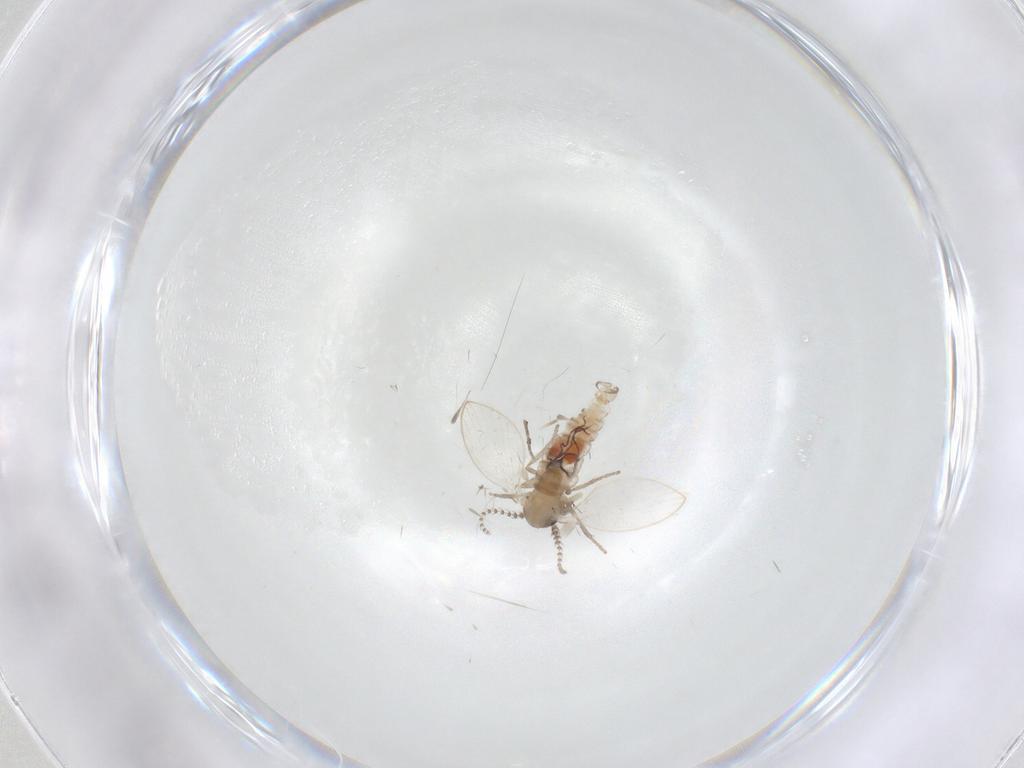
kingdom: Animalia
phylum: Arthropoda
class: Insecta
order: Diptera
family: Psychodidae
